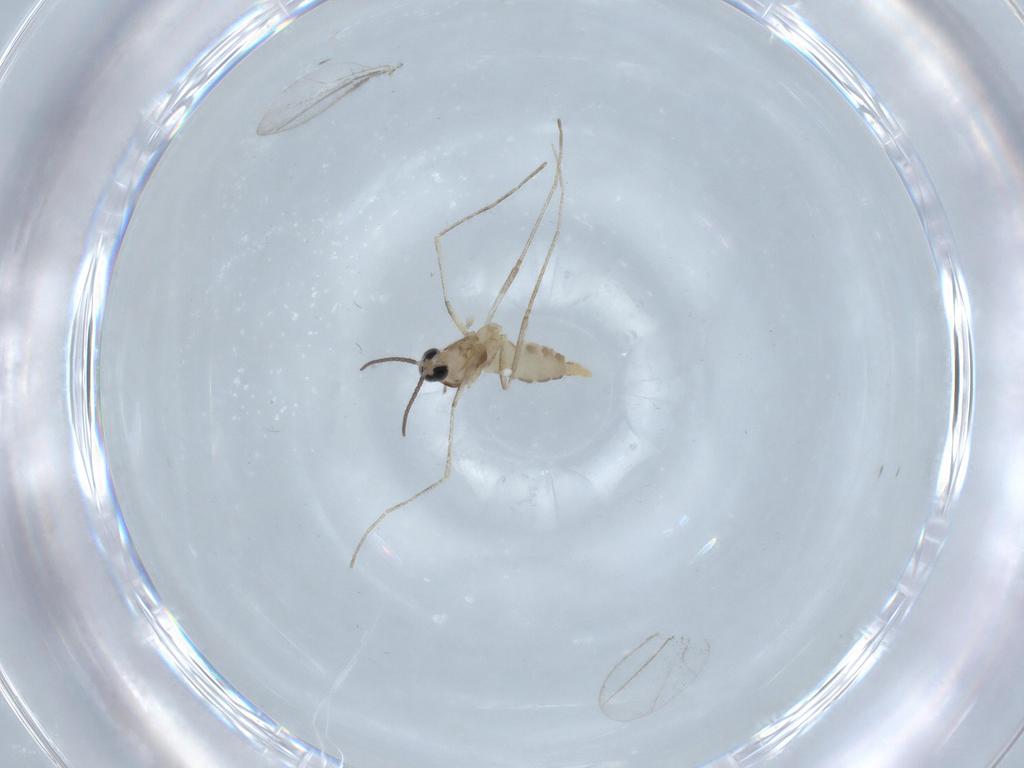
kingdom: Animalia
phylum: Arthropoda
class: Insecta
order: Diptera
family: Cecidomyiidae
